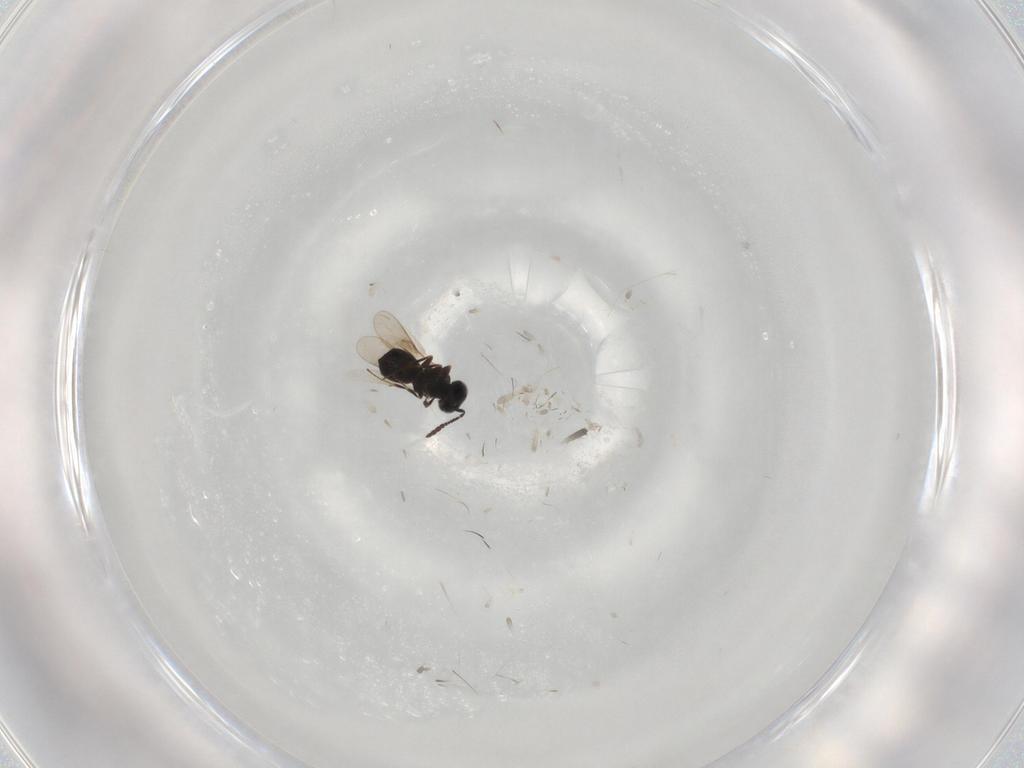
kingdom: Animalia
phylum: Arthropoda
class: Insecta
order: Hymenoptera
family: Scelionidae
